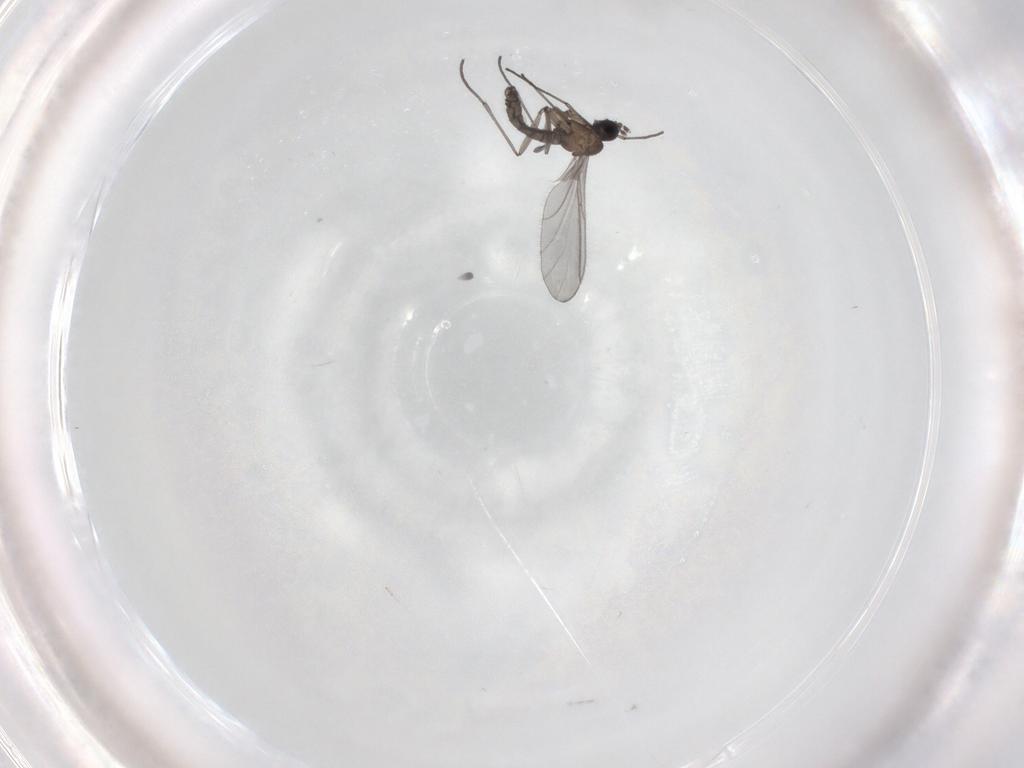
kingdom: Animalia
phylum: Arthropoda
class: Insecta
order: Diptera
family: Cecidomyiidae
